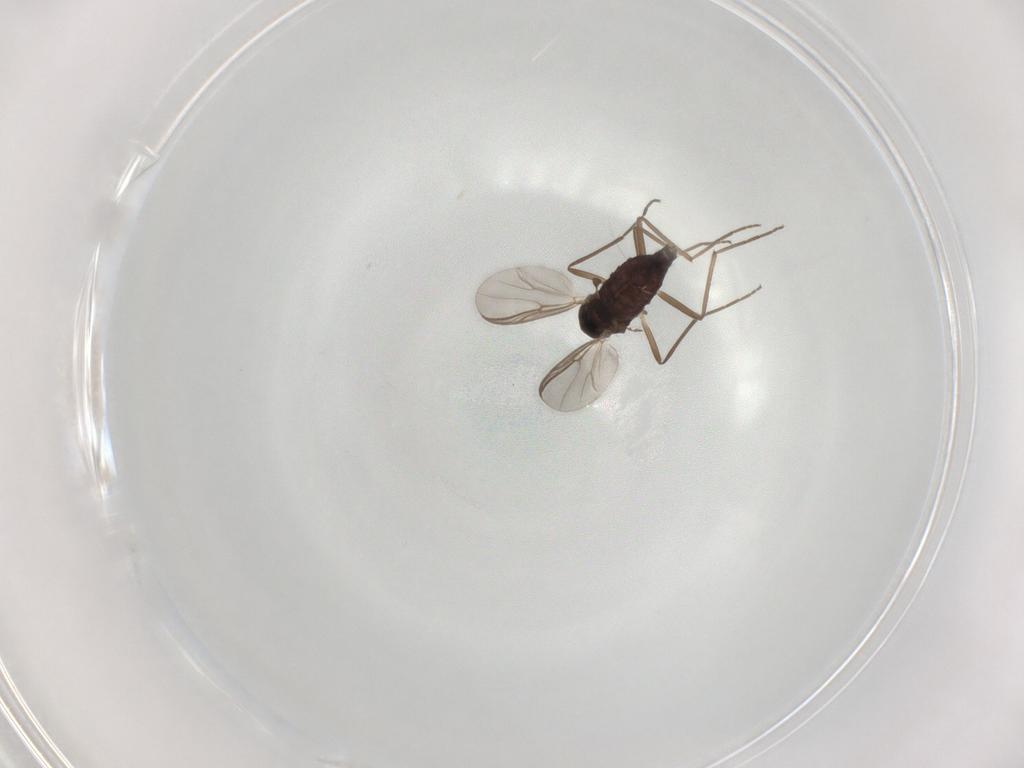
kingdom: Animalia
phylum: Arthropoda
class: Insecta
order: Diptera
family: Chironomidae
